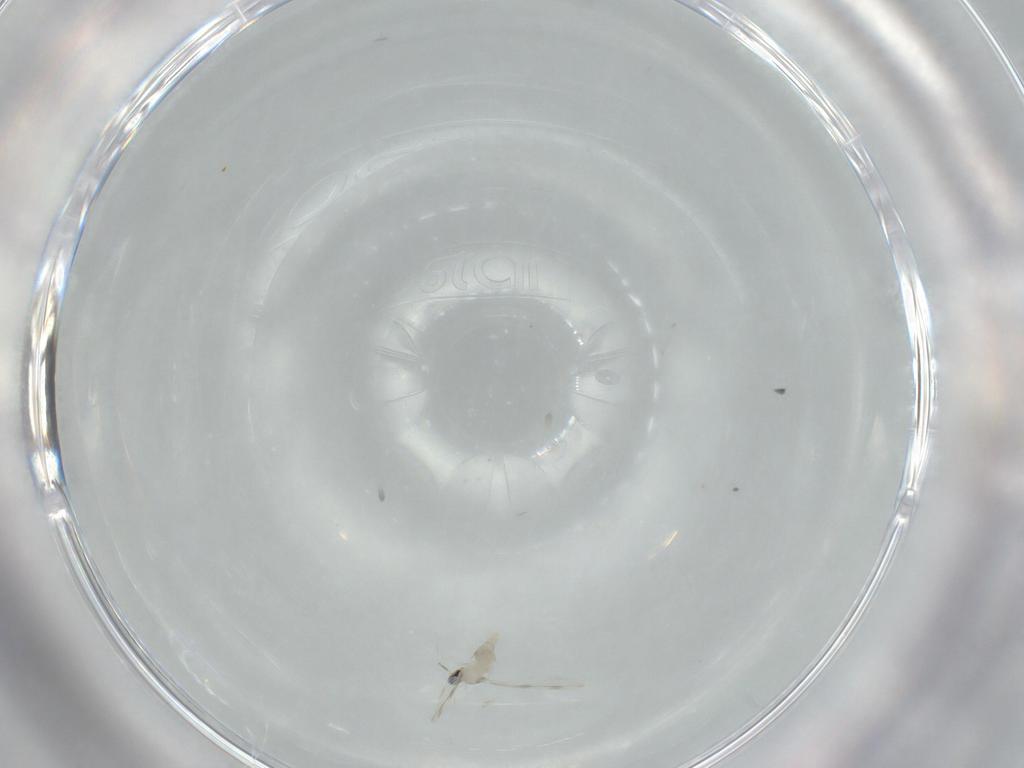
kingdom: Animalia
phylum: Arthropoda
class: Insecta
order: Diptera
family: Cecidomyiidae
